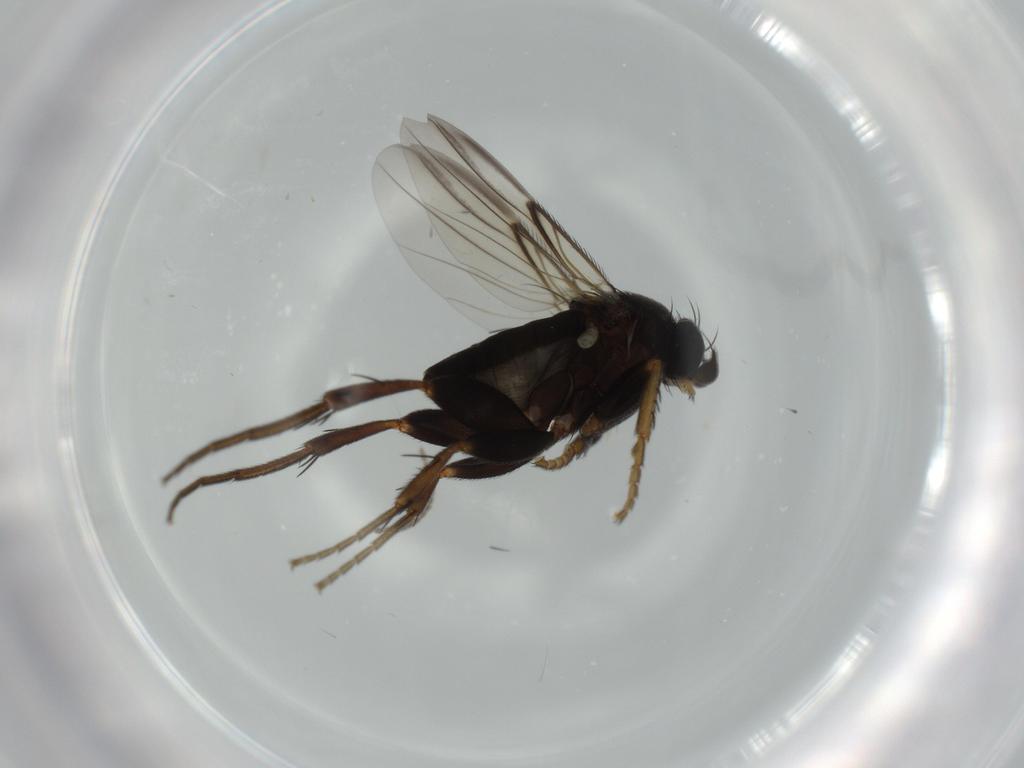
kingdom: Animalia
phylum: Arthropoda
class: Insecta
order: Diptera
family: Phoridae
